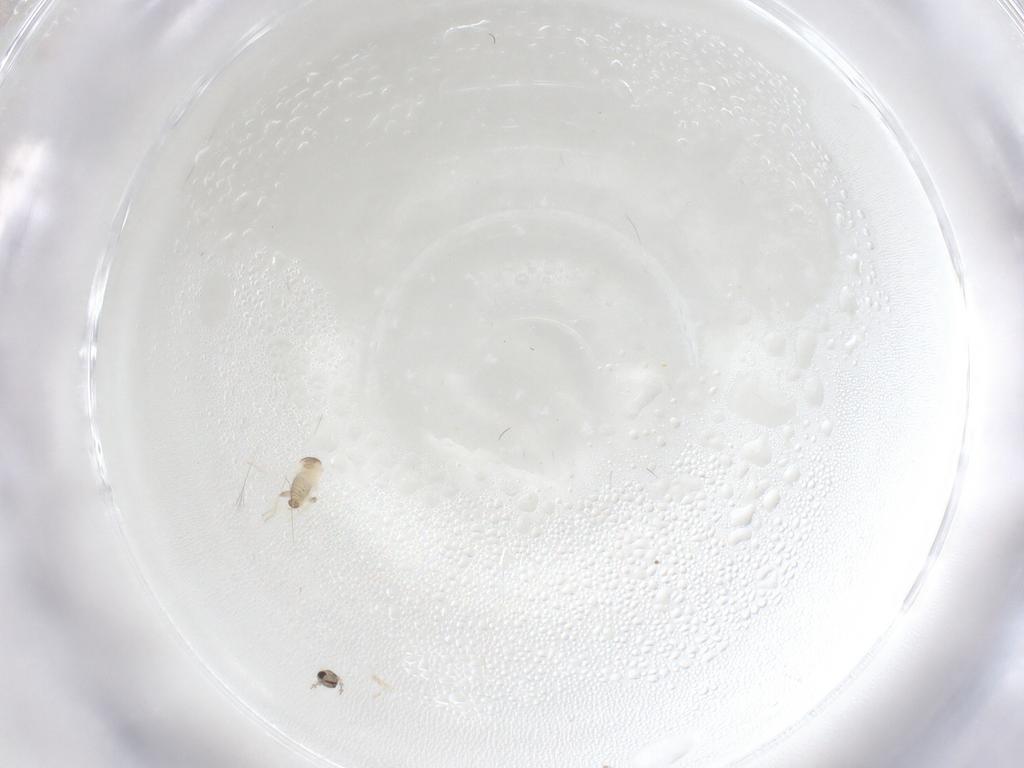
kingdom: Animalia
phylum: Arthropoda
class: Insecta
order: Diptera
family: Cecidomyiidae
